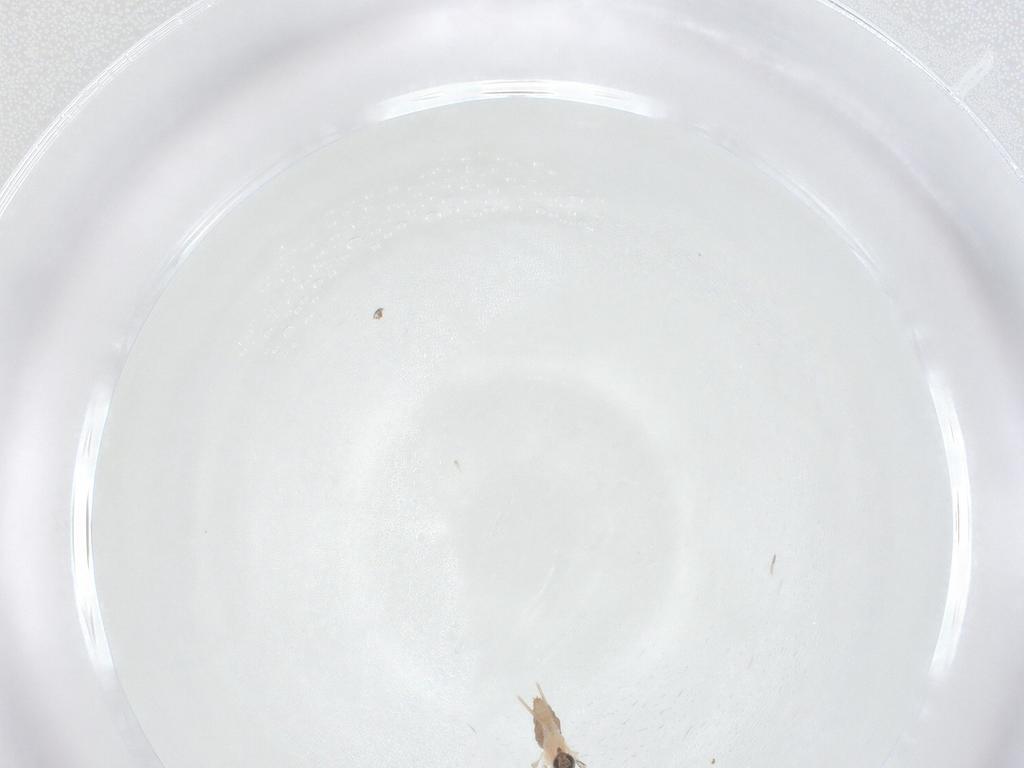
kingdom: Animalia
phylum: Arthropoda
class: Insecta
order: Diptera
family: Cecidomyiidae
